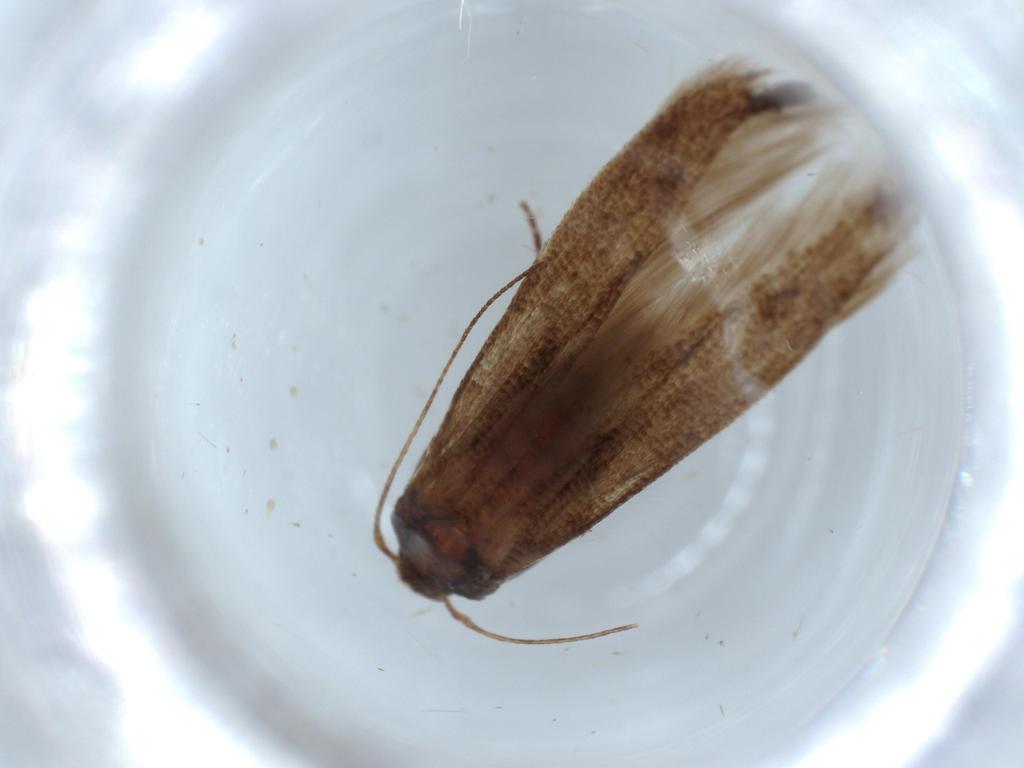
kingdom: Animalia
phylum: Arthropoda
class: Insecta
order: Lepidoptera
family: Stathmopodidae
